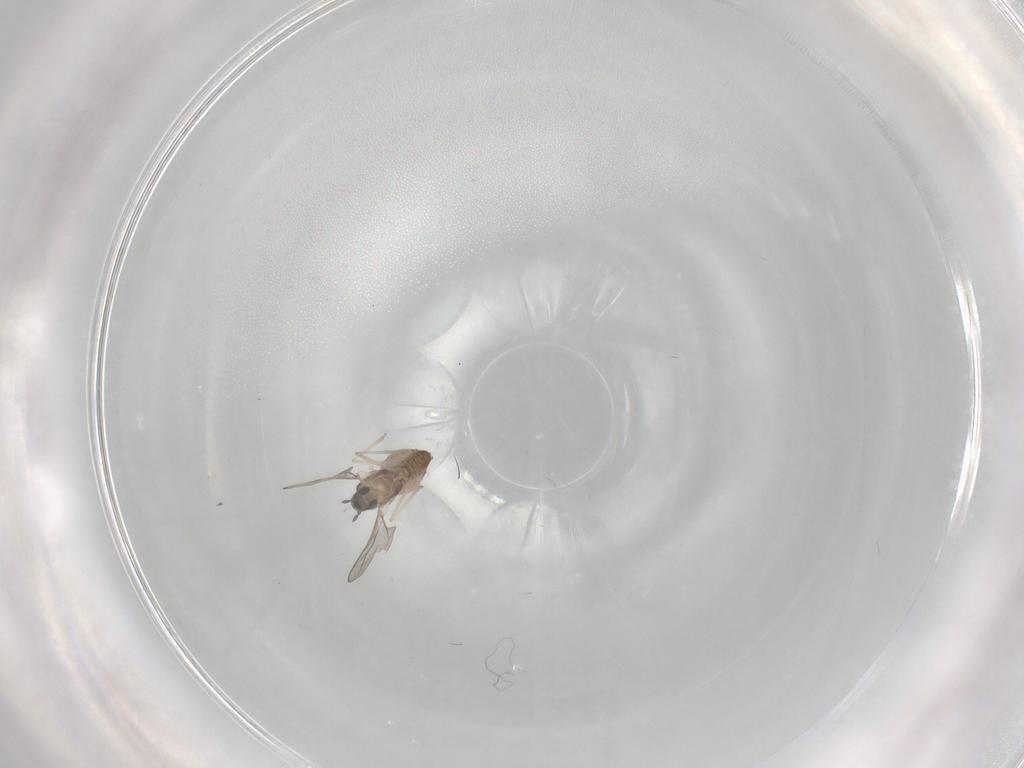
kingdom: Animalia
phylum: Arthropoda
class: Insecta
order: Diptera
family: Cecidomyiidae
